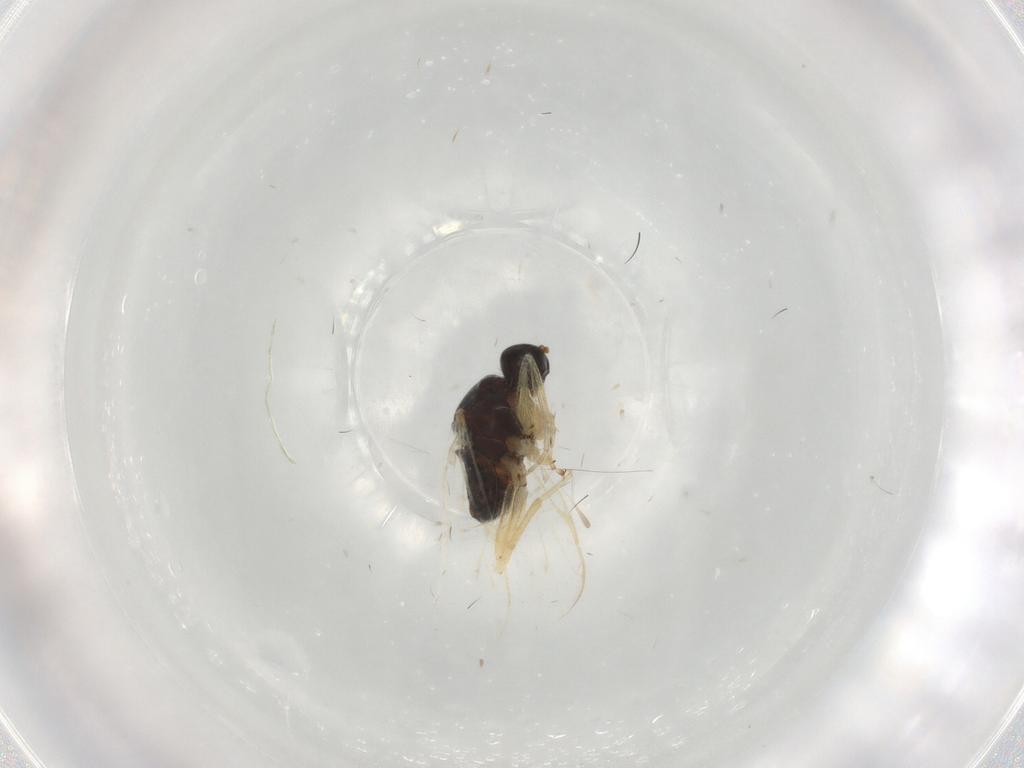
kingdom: Animalia
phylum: Arthropoda
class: Insecta
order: Diptera
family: Hybotidae
